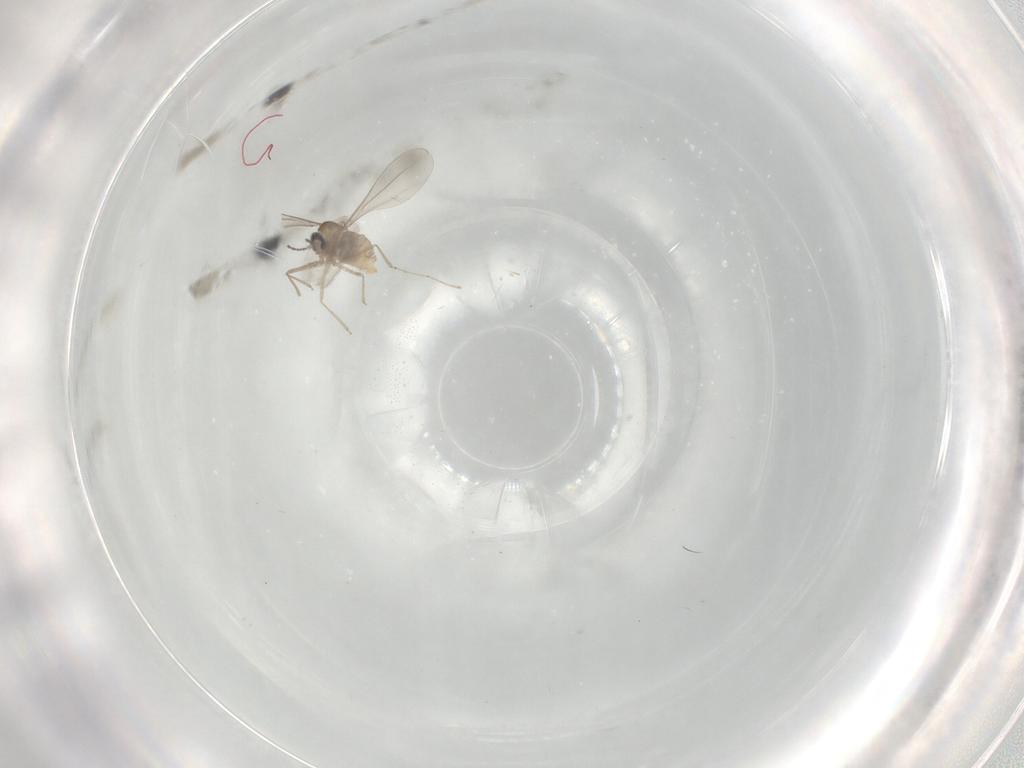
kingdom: Animalia
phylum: Arthropoda
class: Insecta
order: Diptera
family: Cecidomyiidae
